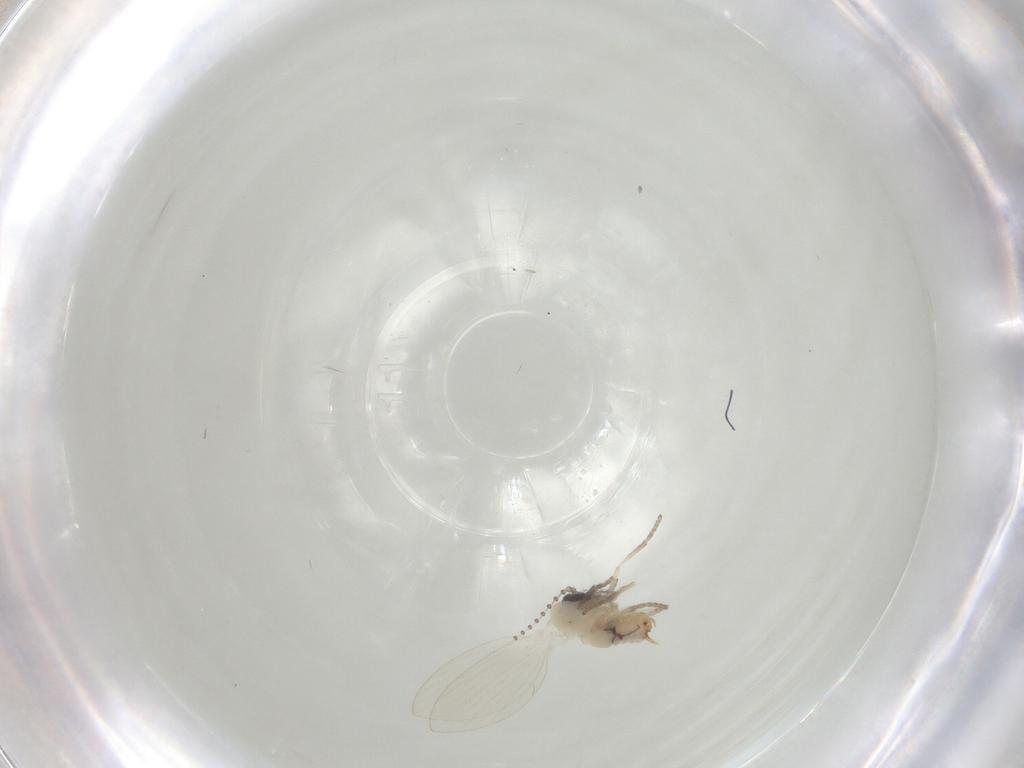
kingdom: Animalia
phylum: Arthropoda
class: Insecta
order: Diptera
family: Psychodidae
